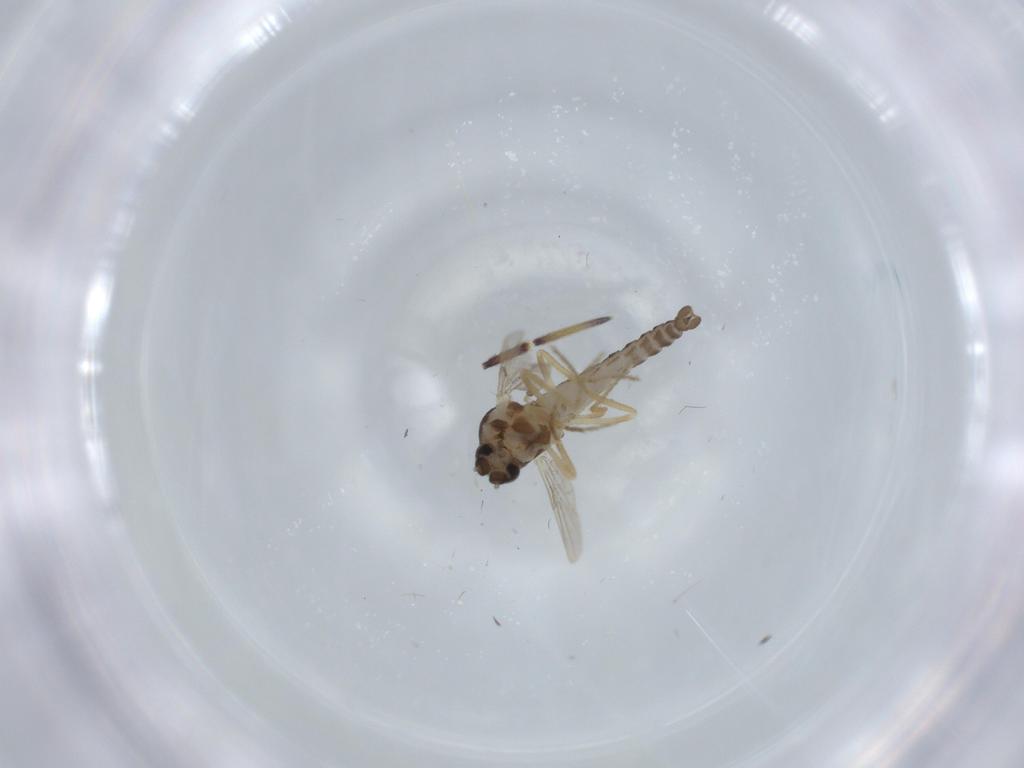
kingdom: Animalia
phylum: Arthropoda
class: Insecta
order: Diptera
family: Ceratopogonidae
